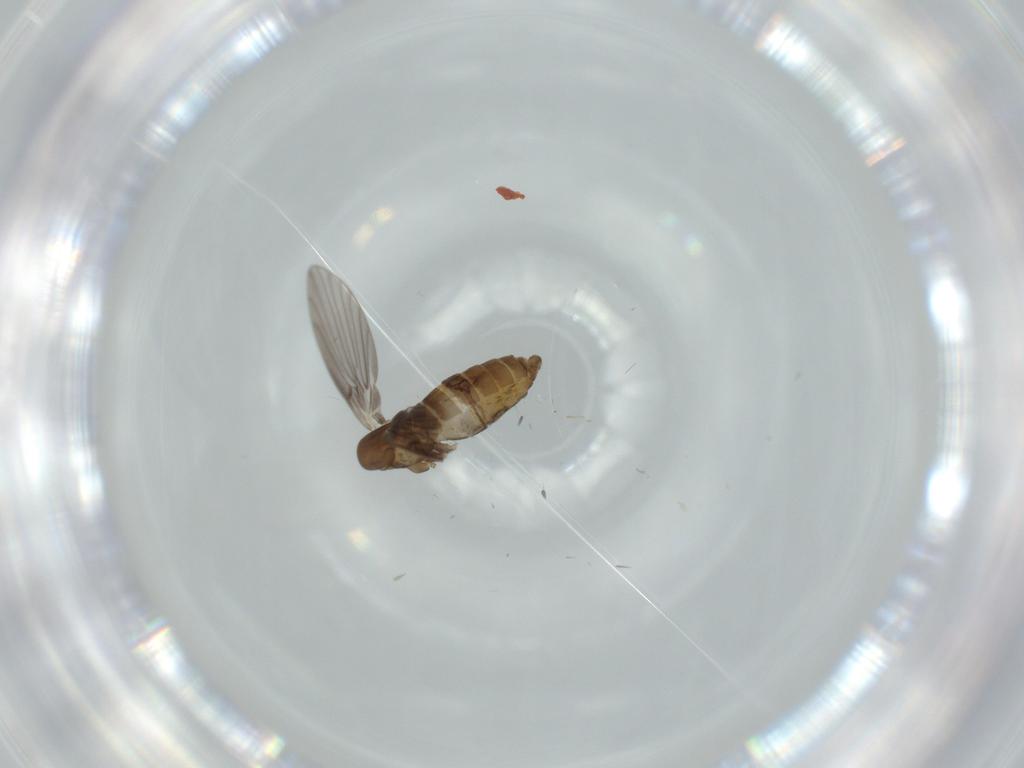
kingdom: Animalia
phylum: Arthropoda
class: Insecta
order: Diptera
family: Psychodidae
